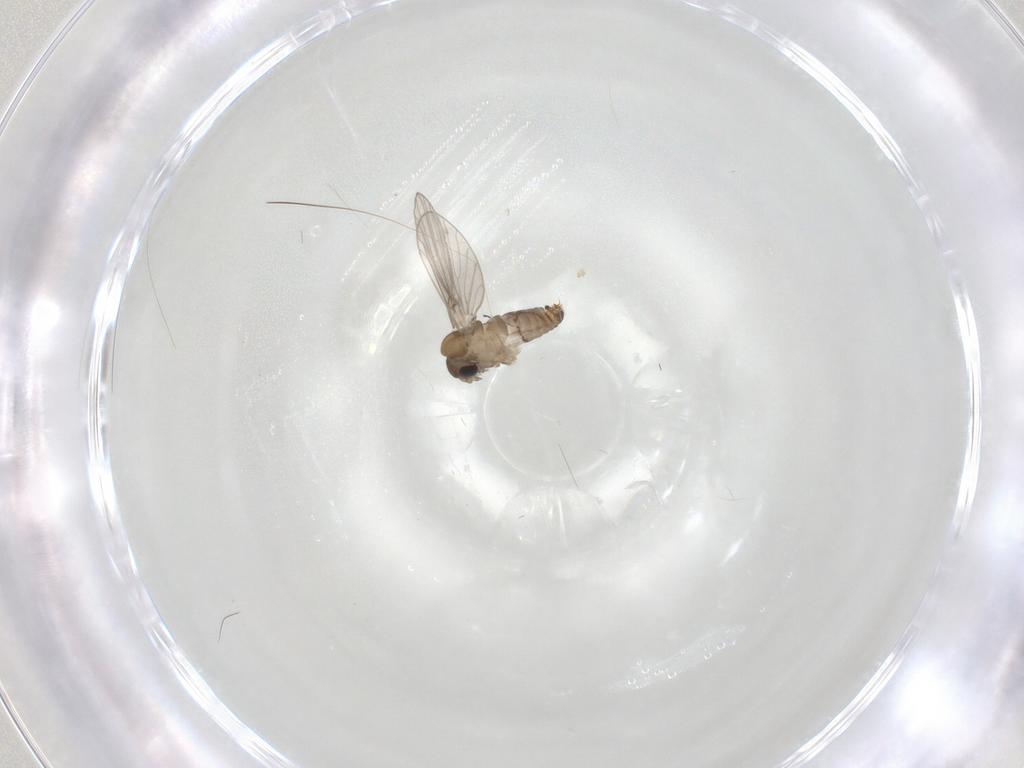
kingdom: Animalia
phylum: Arthropoda
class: Insecta
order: Diptera
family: Psychodidae
